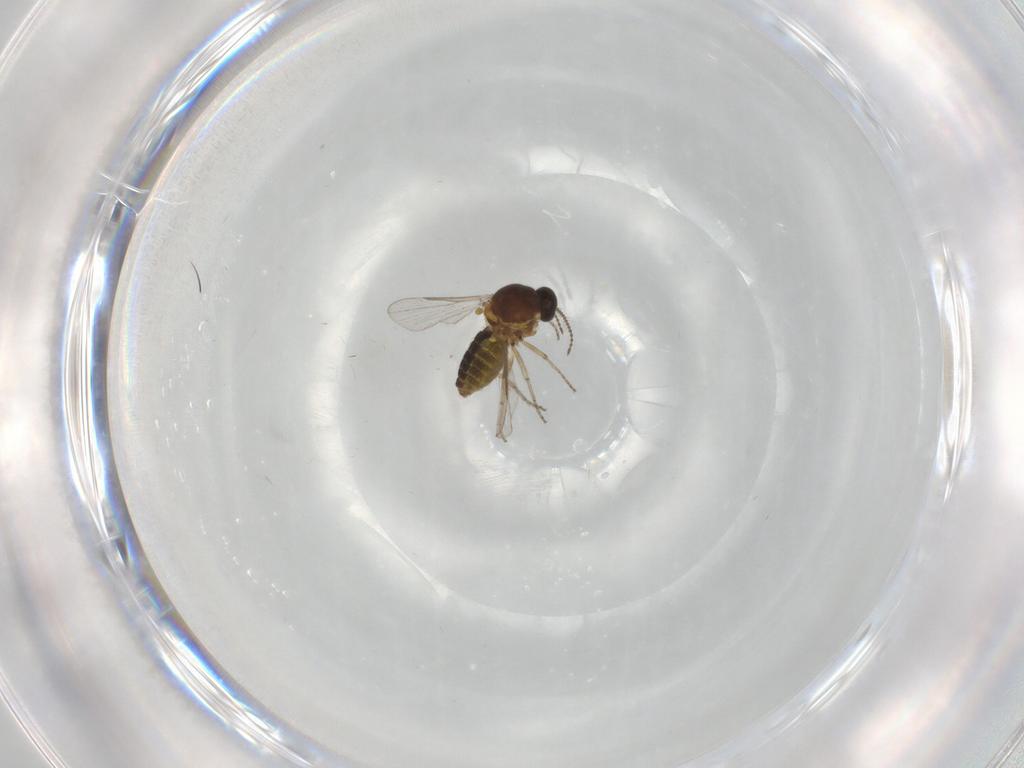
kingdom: Animalia
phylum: Arthropoda
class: Insecta
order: Diptera
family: Ceratopogonidae
